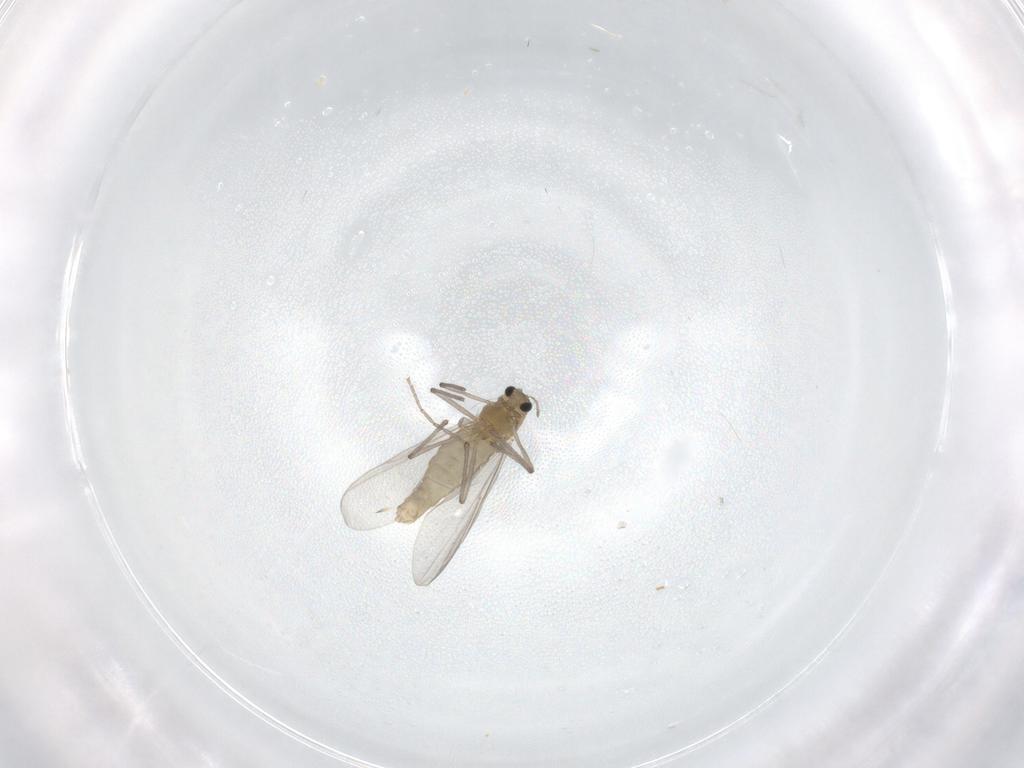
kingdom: Animalia
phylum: Arthropoda
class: Insecta
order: Diptera
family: Chironomidae
